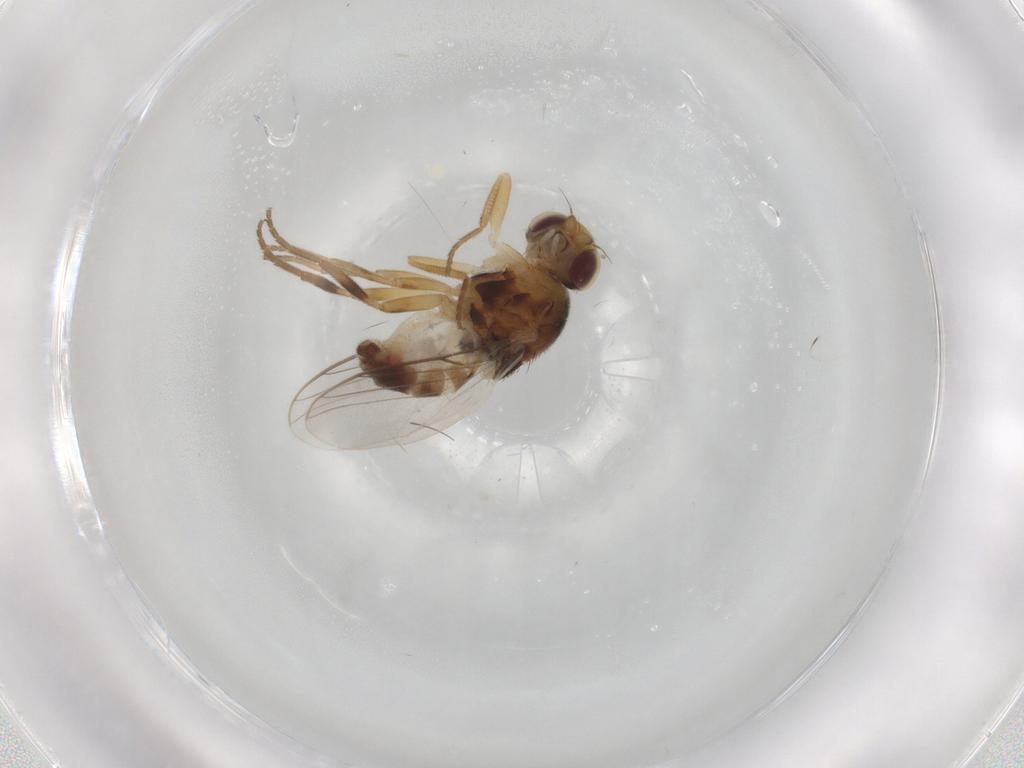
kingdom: Animalia
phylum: Arthropoda
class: Insecta
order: Diptera
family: Chloropidae
